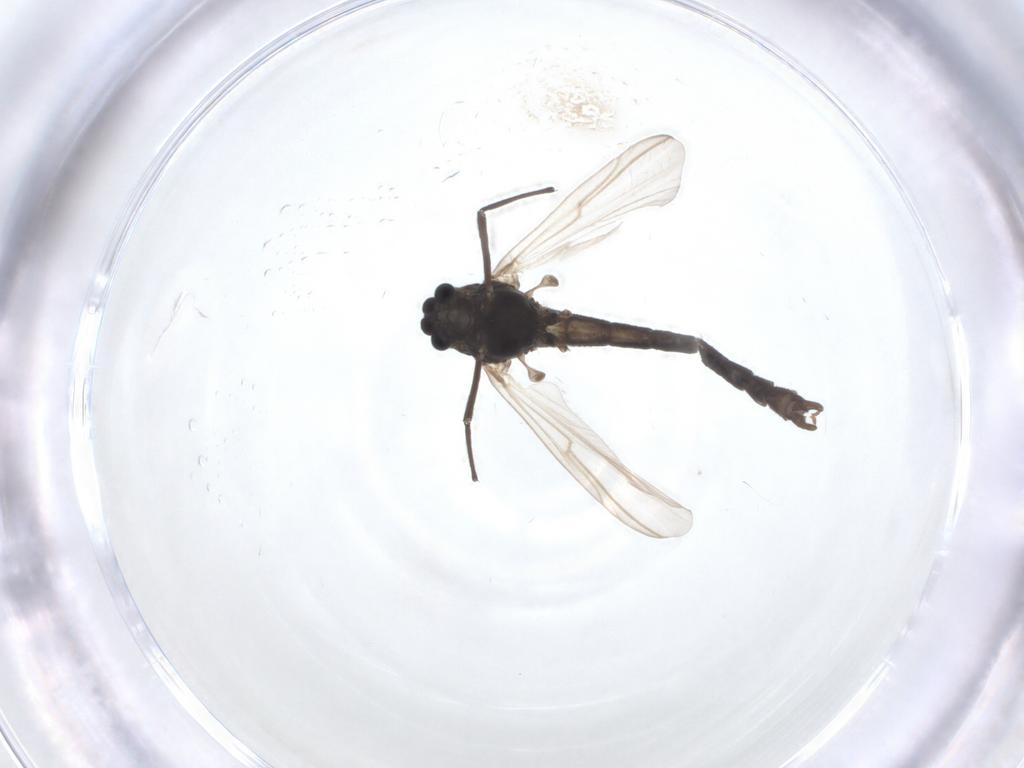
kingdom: Animalia
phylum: Arthropoda
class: Insecta
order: Diptera
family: Chironomidae
